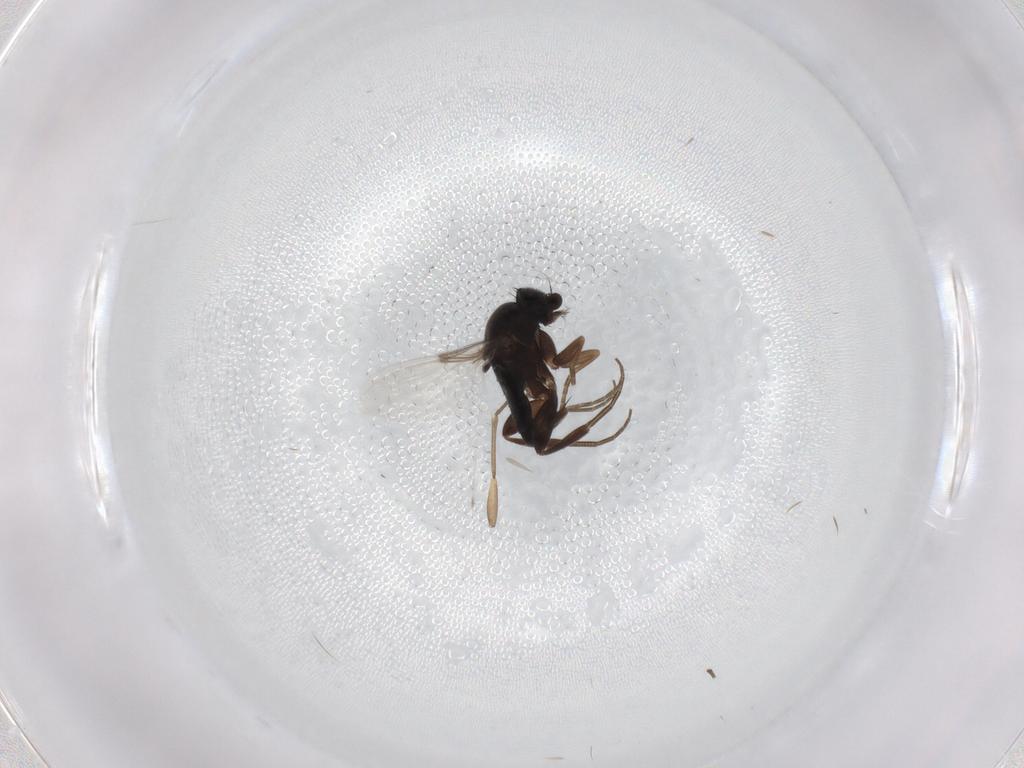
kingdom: Animalia
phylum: Arthropoda
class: Insecta
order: Diptera
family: Phoridae
